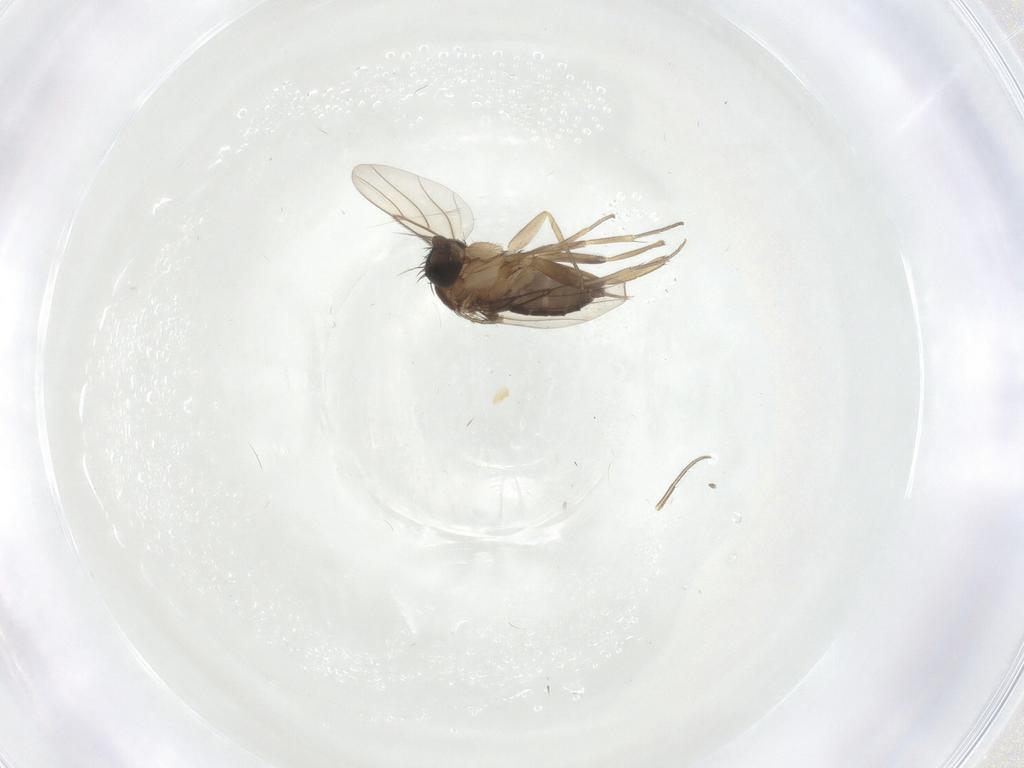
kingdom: Animalia
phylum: Arthropoda
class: Insecta
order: Diptera
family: Phoridae
